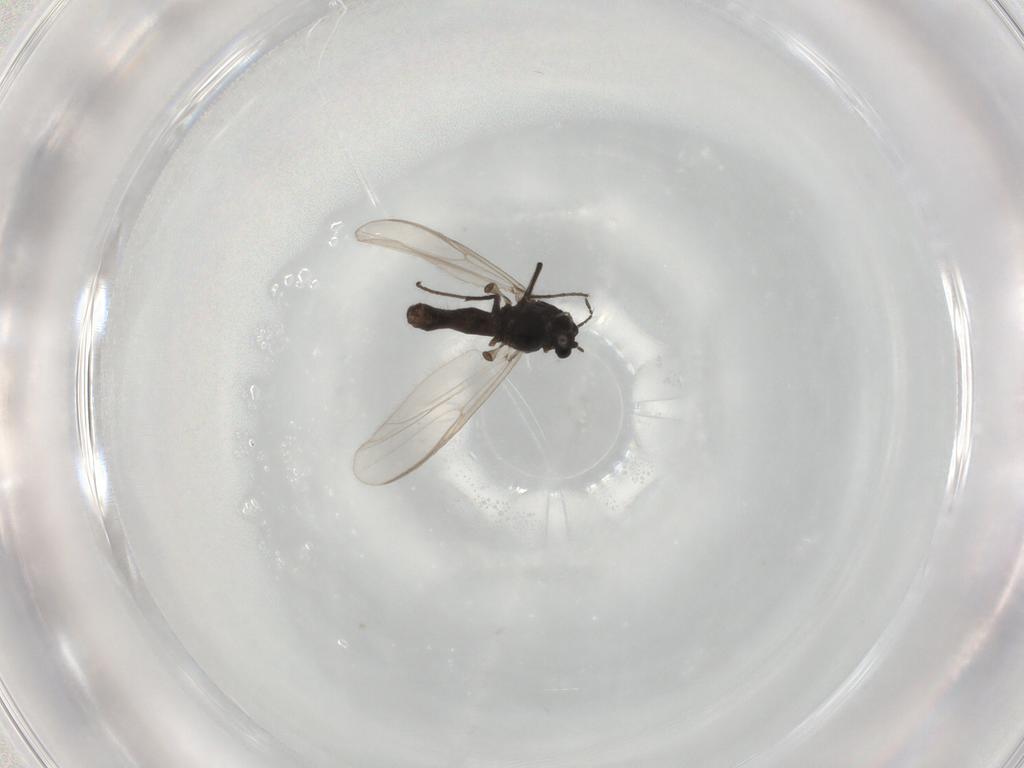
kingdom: Animalia
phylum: Arthropoda
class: Insecta
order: Diptera
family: Chironomidae
